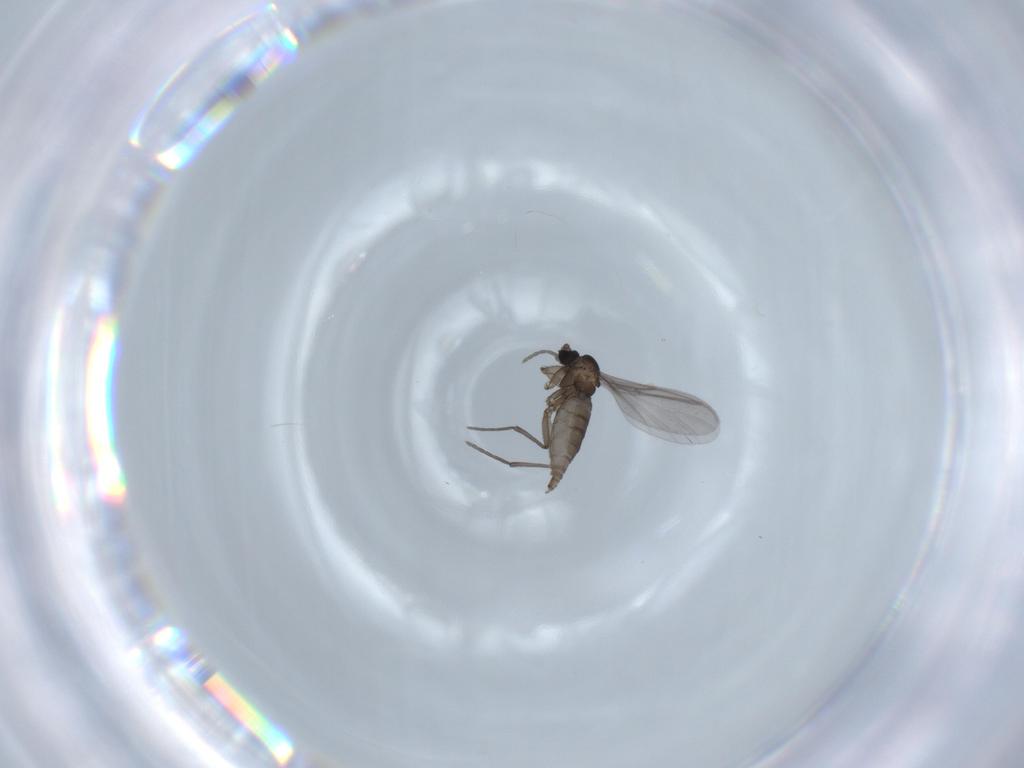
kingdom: Animalia
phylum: Arthropoda
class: Insecta
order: Diptera
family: Sciaridae
